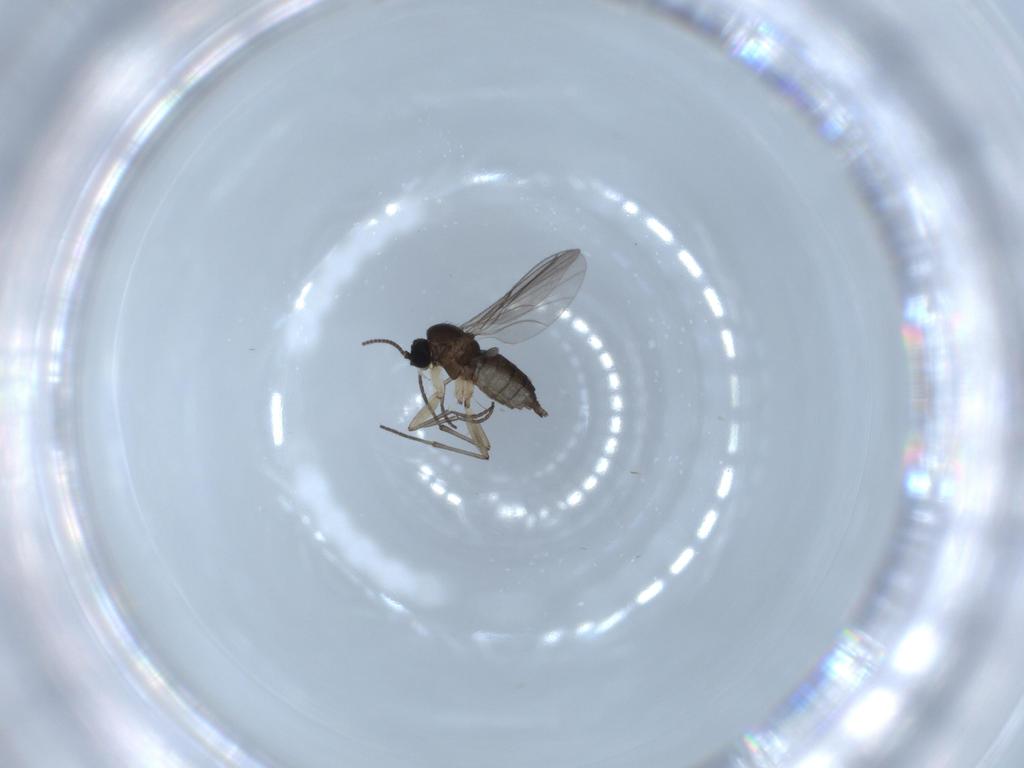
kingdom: Animalia
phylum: Arthropoda
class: Insecta
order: Diptera
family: Sciaridae
